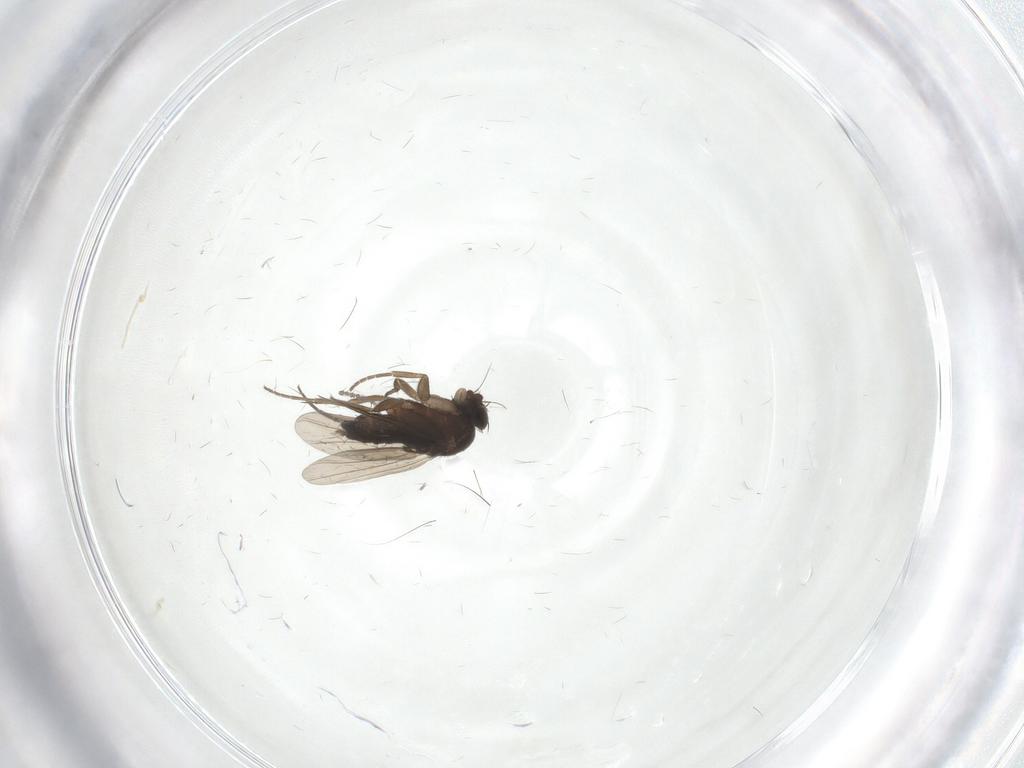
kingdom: Animalia
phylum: Arthropoda
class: Insecta
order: Diptera
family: Phoridae
